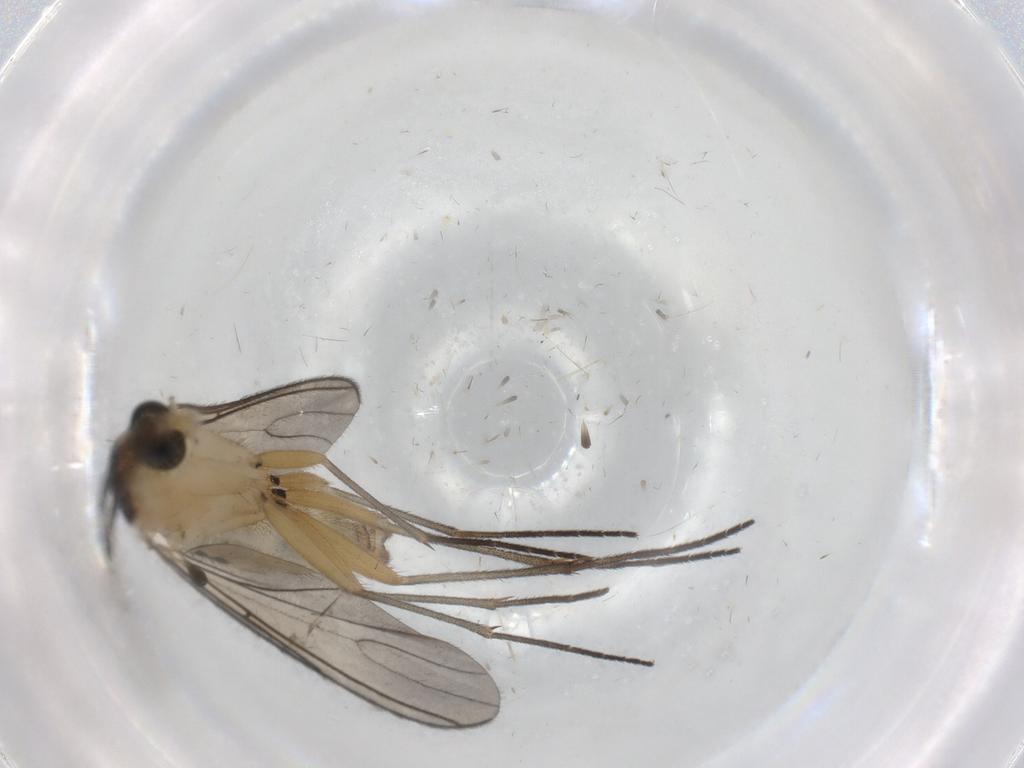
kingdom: Animalia
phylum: Arthropoda
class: Insecta
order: Diptera
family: Sciaridae
